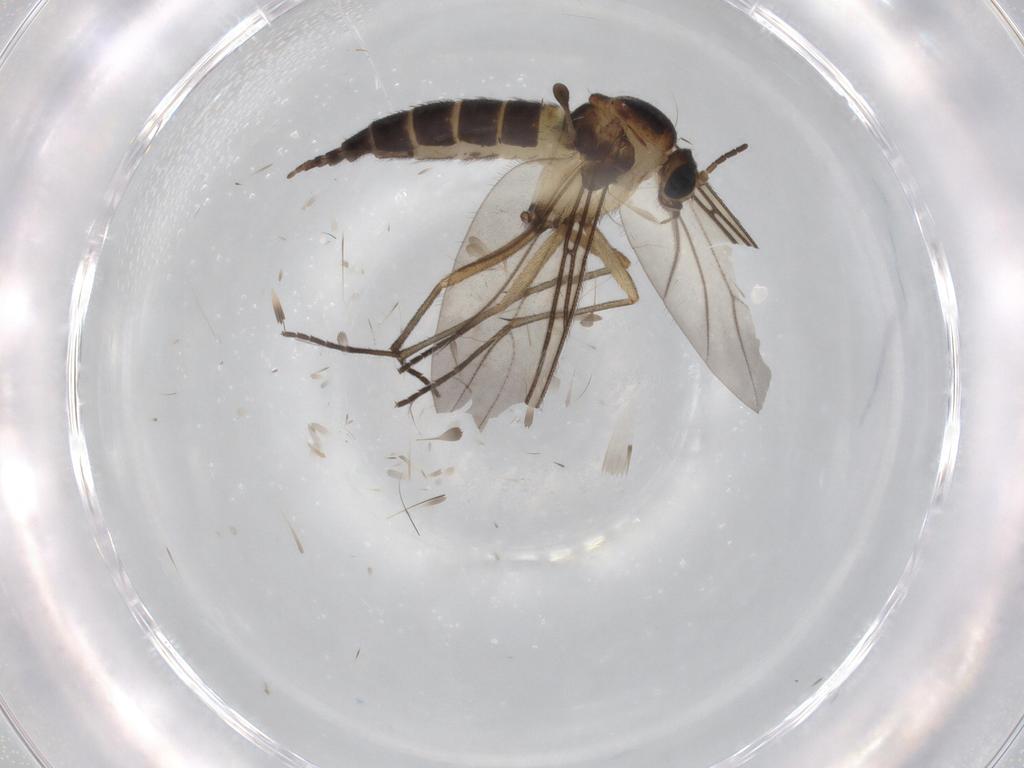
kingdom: Animalia
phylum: Arthropoda
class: Insecta
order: Diptera
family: Sciaridae
